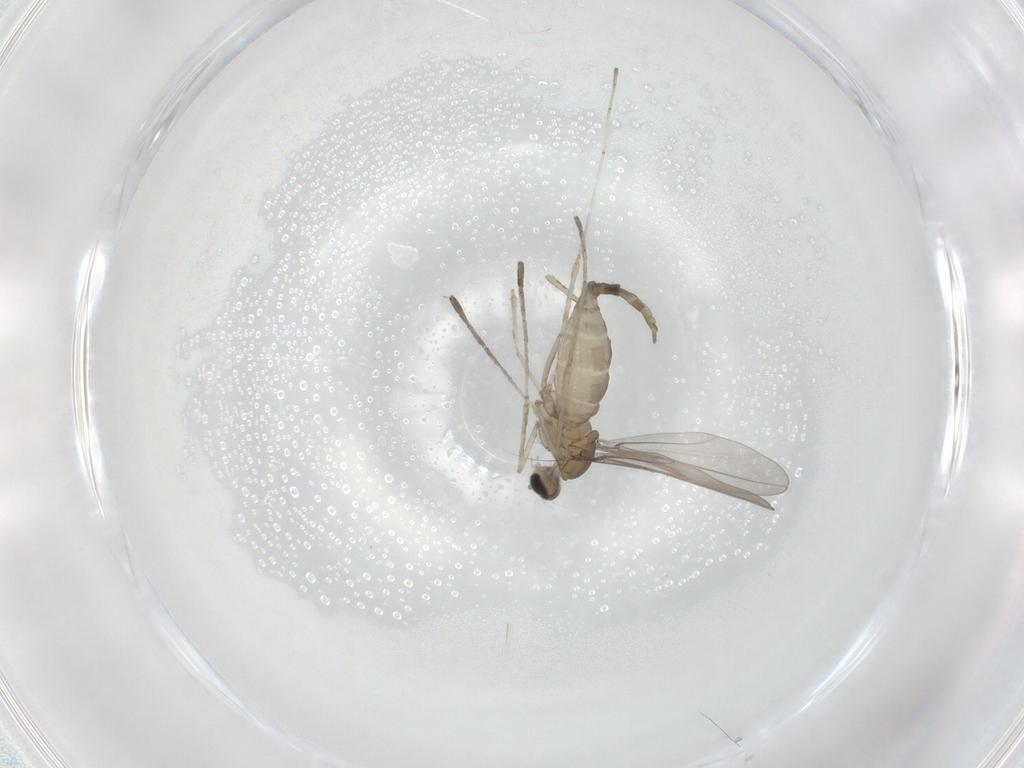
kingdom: Animalia
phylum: Arthropoda
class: Insecta
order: Diptera
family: Cecidomyiidae
